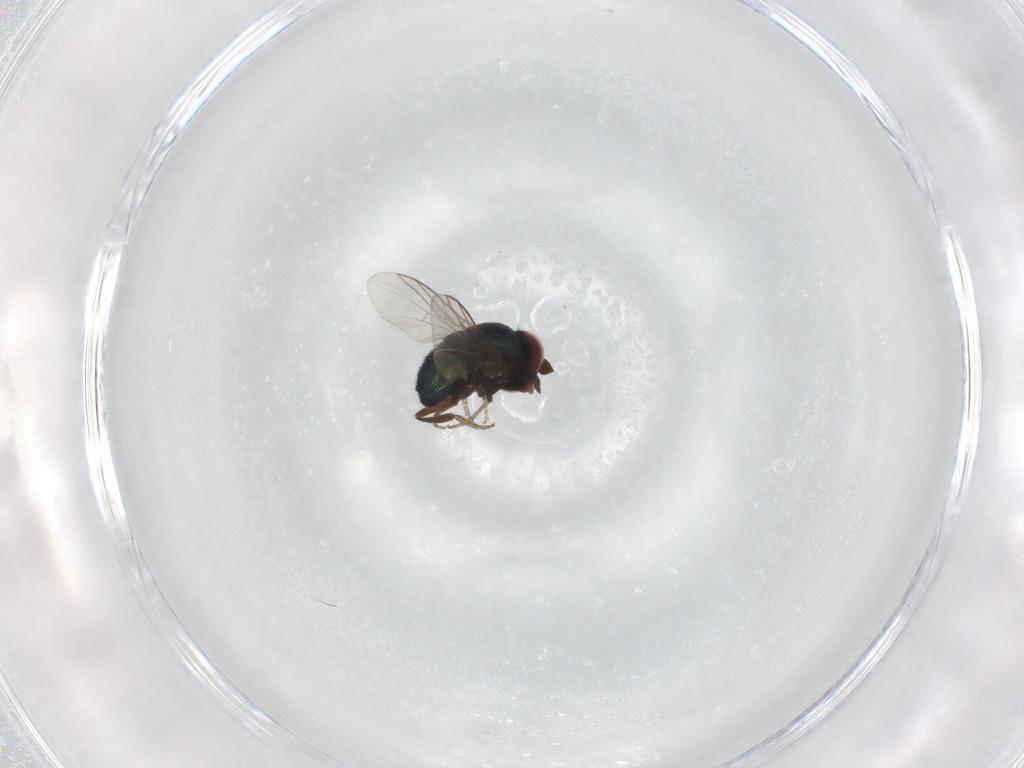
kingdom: Animalia
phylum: Arthropoda
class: Insecta
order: Diptera
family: Cryptochetidae
